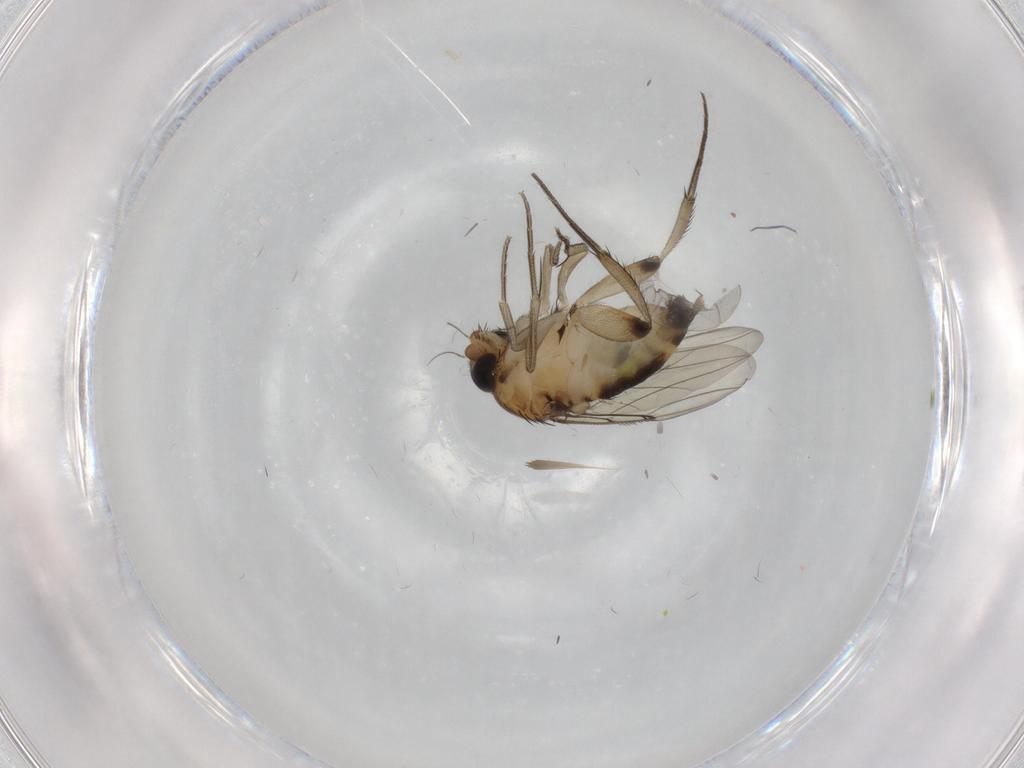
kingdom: Animalia
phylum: Arthropoda
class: Insecta
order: Diptera
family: Phoridae
